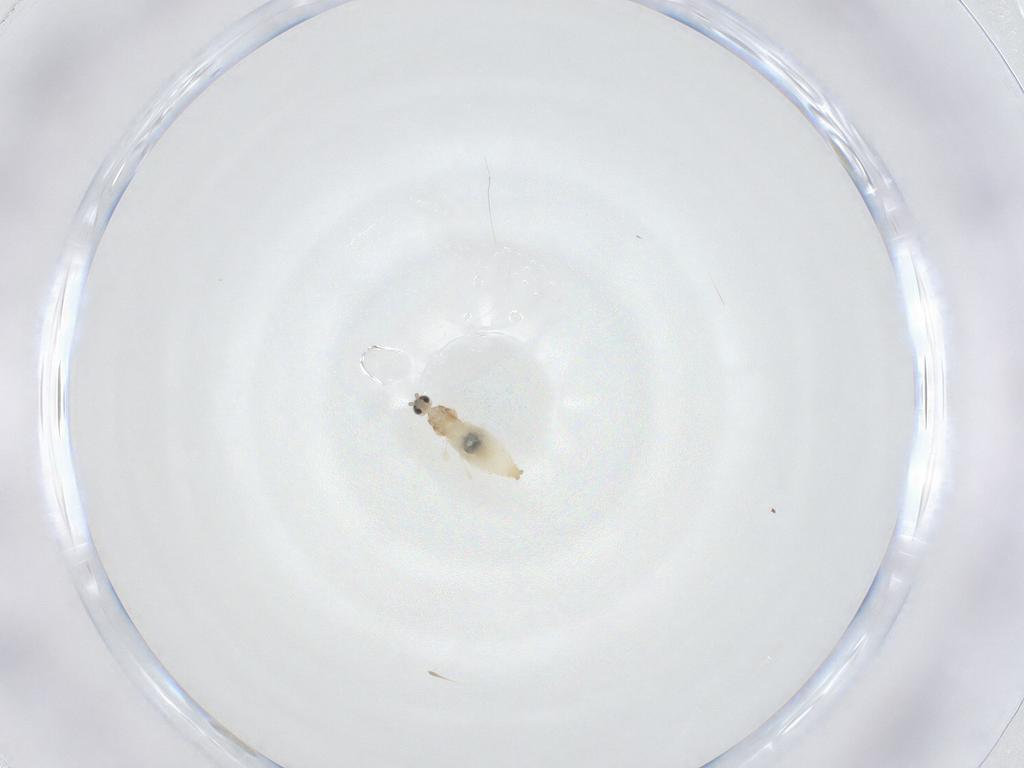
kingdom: Animalia
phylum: Arthropoda
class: Insecta
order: Diptera
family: Cecidomyiidae
